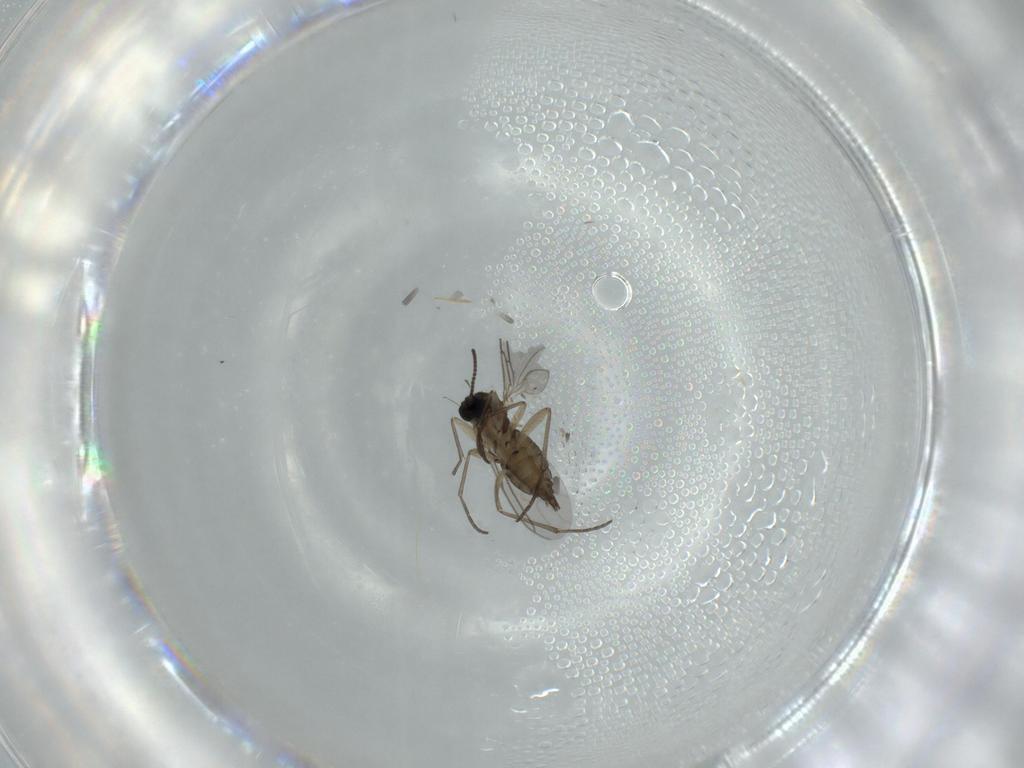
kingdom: Animalia
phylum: Arthropoda
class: Insecta
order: Diptera
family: Sciaridae
